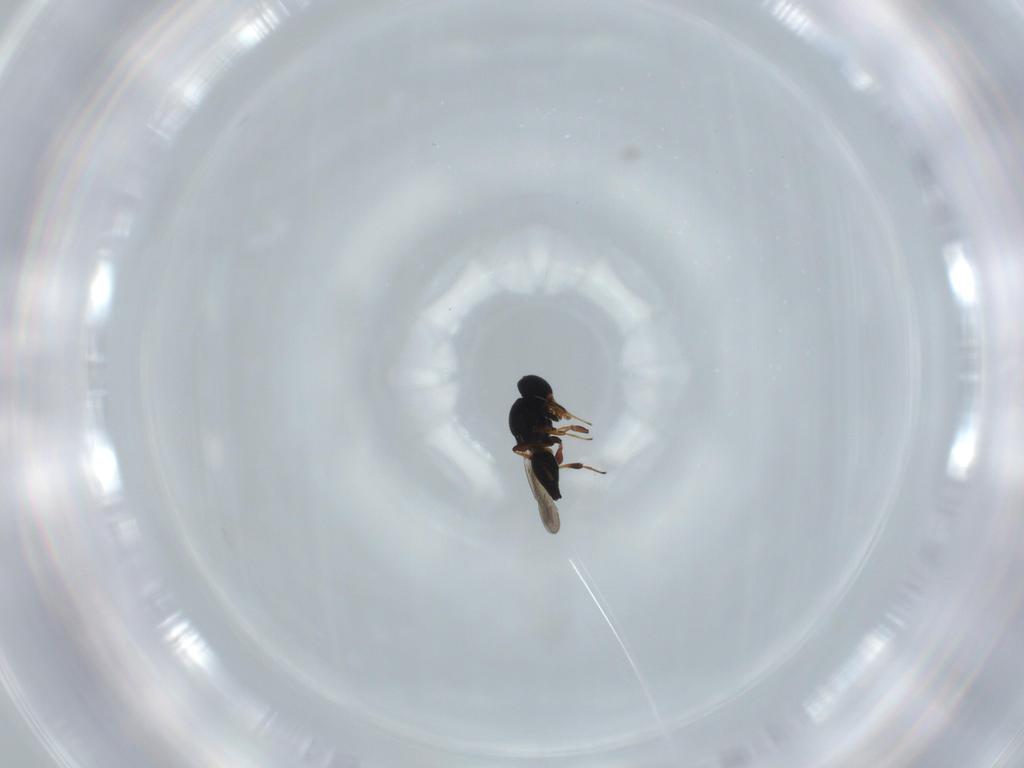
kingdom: Animalia
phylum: Arthropoda
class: Insecta
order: Hymenoptera
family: Platygastridae
